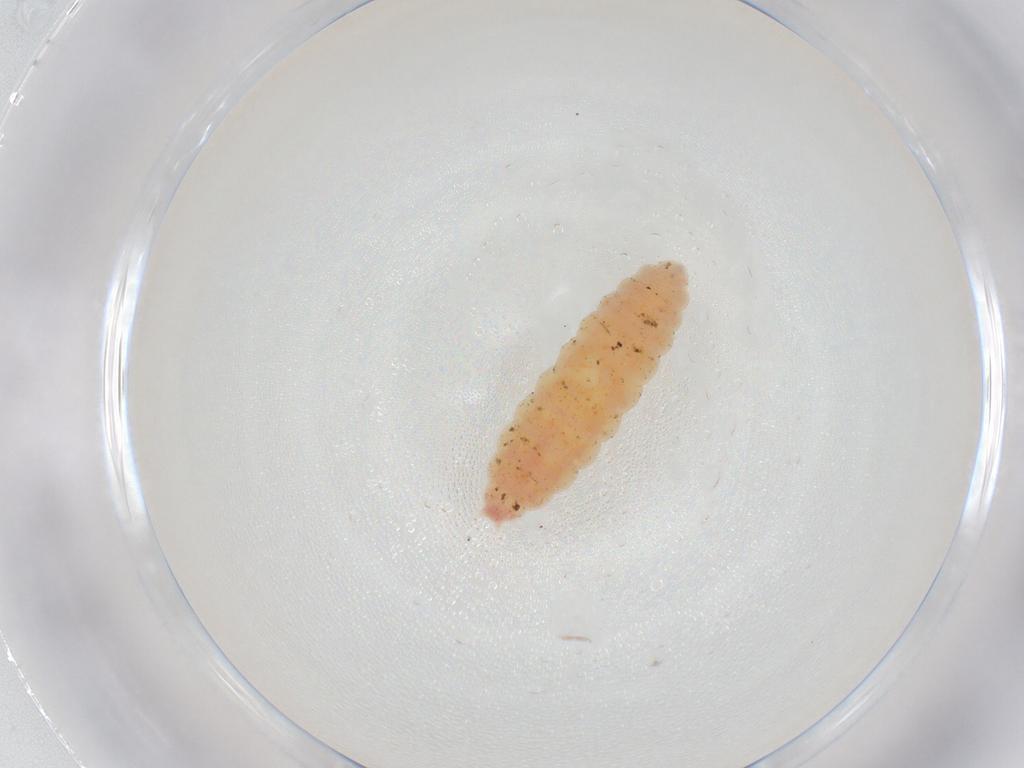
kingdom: Animalia
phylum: Arthropoda
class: Insecta
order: Diptera
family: Cecidomyiidae
